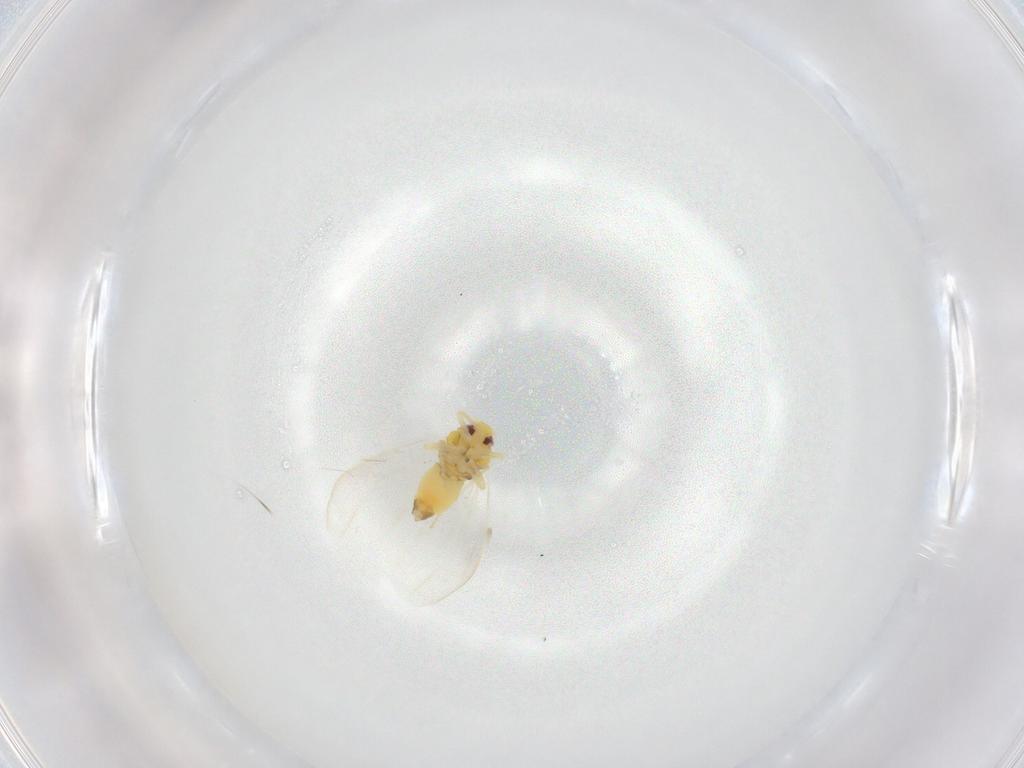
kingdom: Animalia
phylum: Arthropoda
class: Insecta
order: Hemiptera
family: Aleyrodidae
